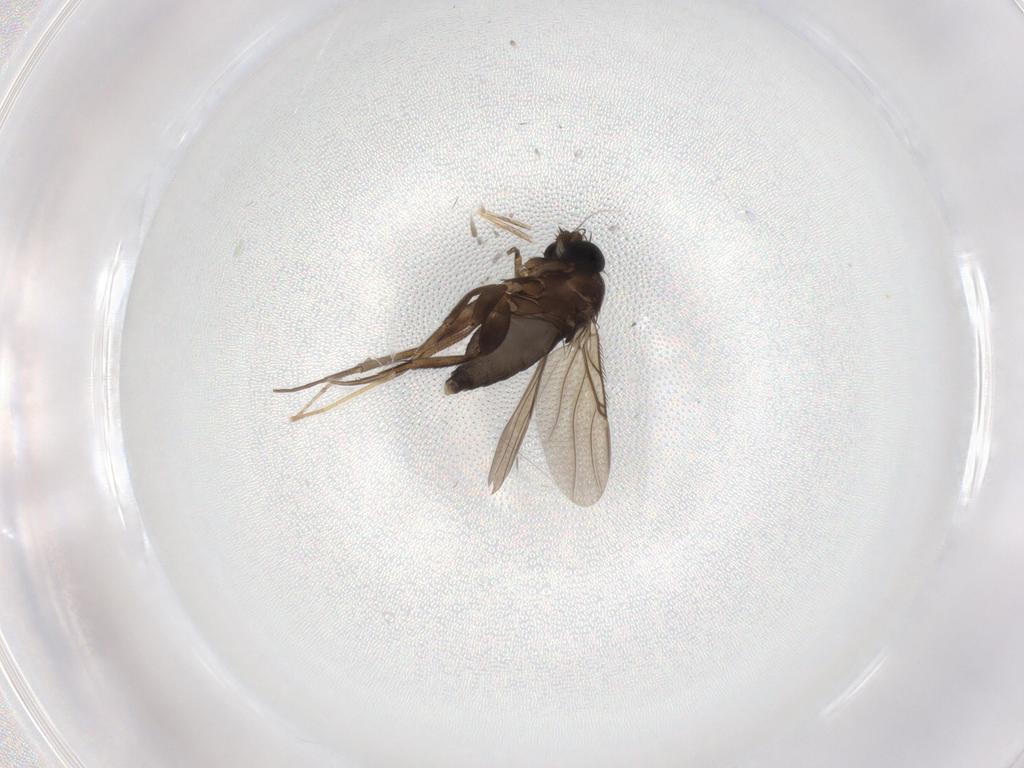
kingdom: Animalia
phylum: Arthropoda
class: Insecta
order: Diptera
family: Phoridae
